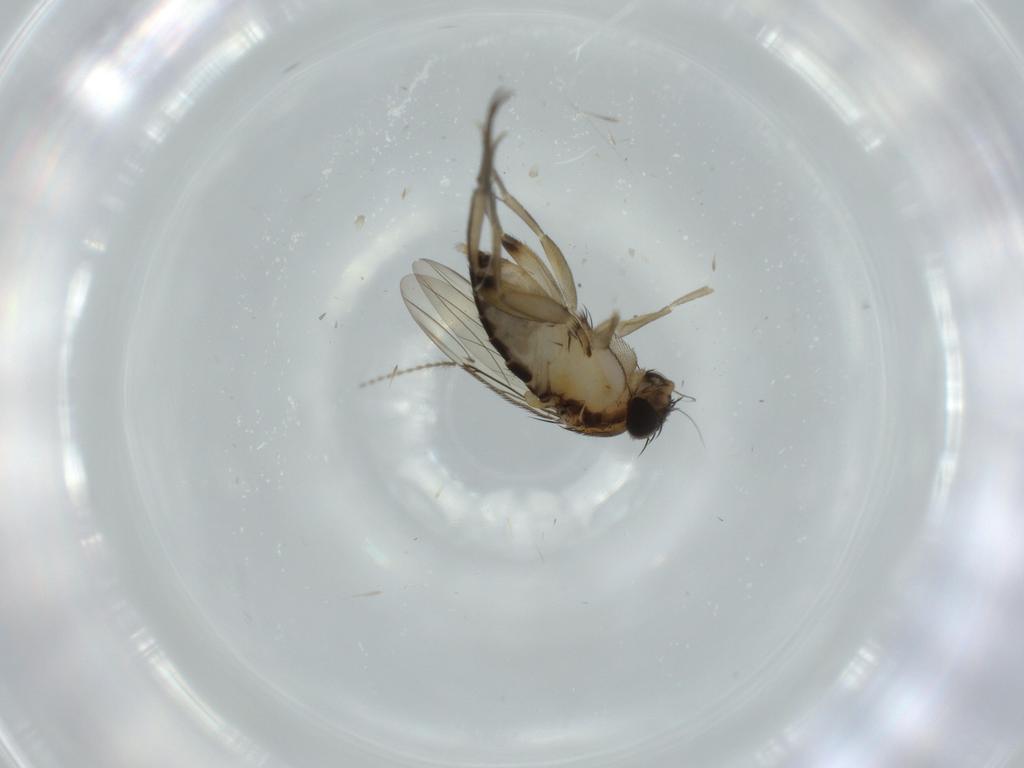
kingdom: Animalia
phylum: Arthropoda
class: Insecta
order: Diptera
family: Phoridae
